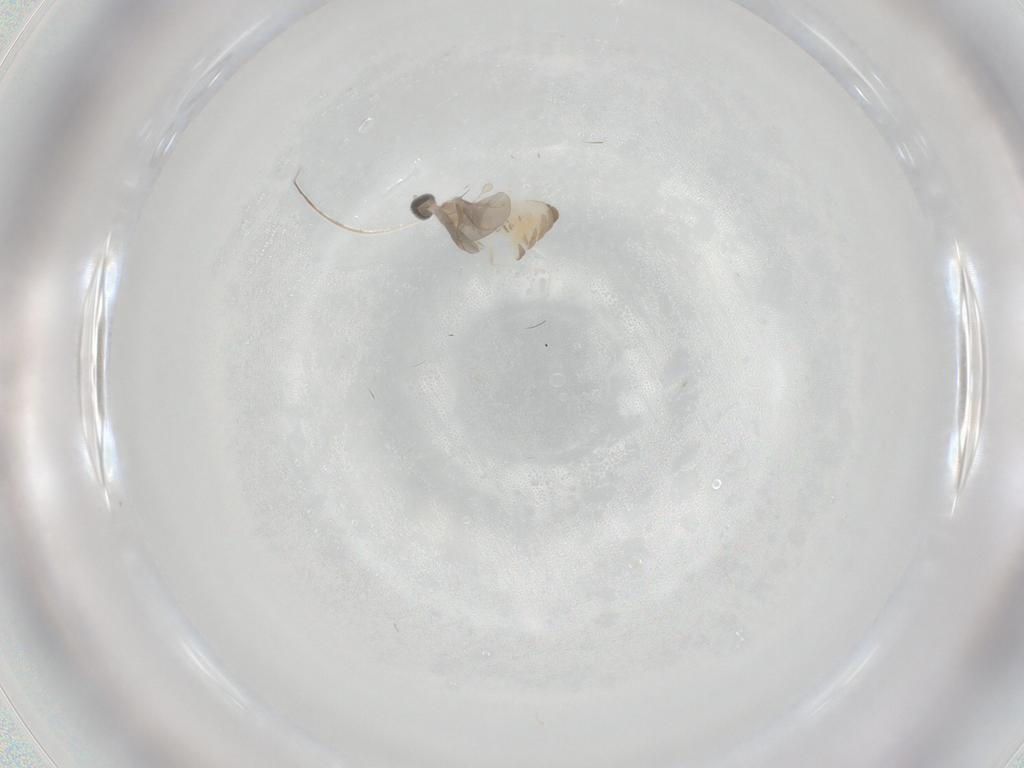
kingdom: Animalia
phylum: Arthropoda
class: Insecta
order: Diptera
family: Cecidomyiidae
